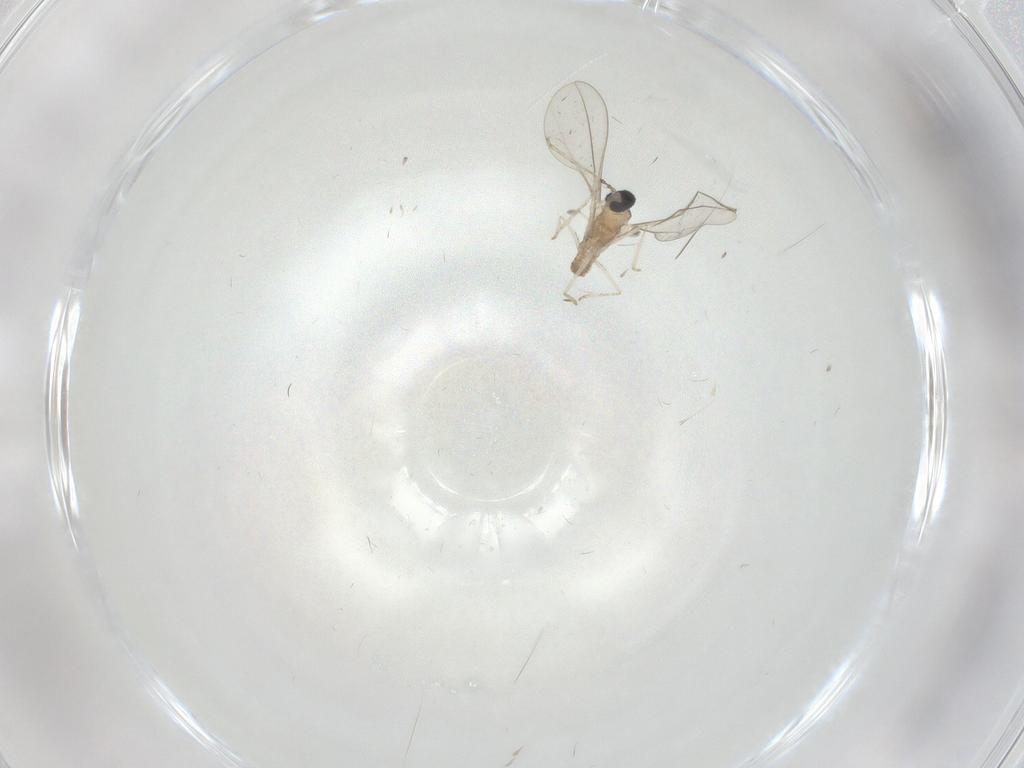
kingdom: Animalia
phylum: Arthropoda
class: Insecta
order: Diptera
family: Cecidomyiidae
